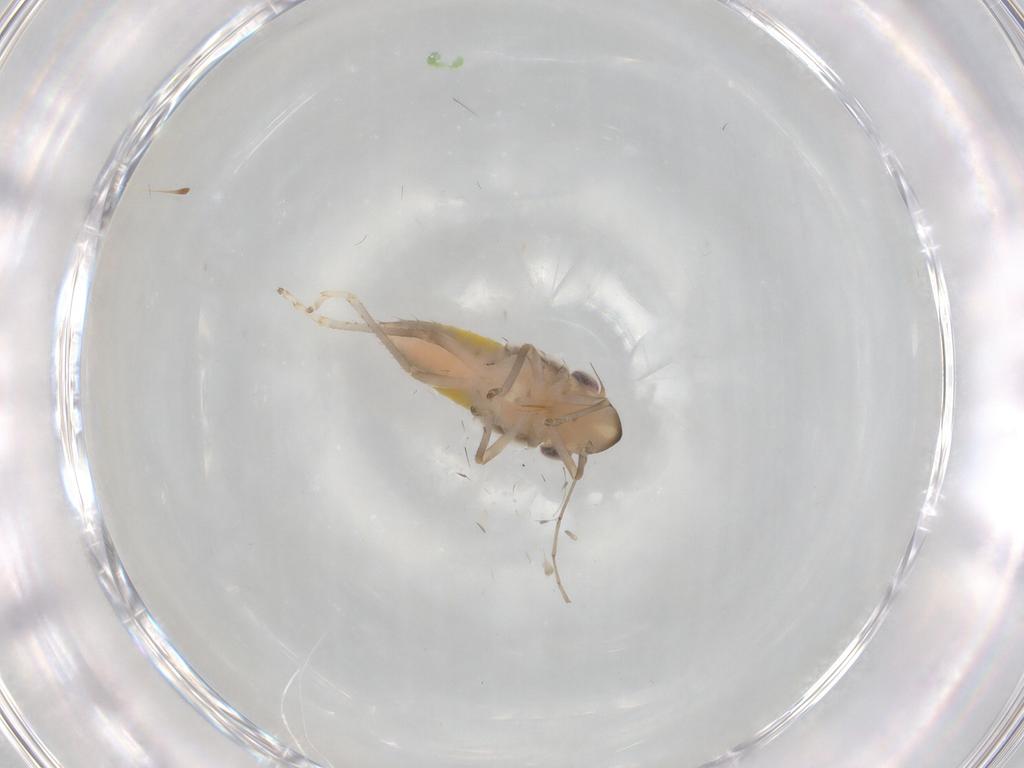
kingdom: Animalia
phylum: Arthropoda
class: Insecta
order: Hemiptera
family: Cicadellidae
